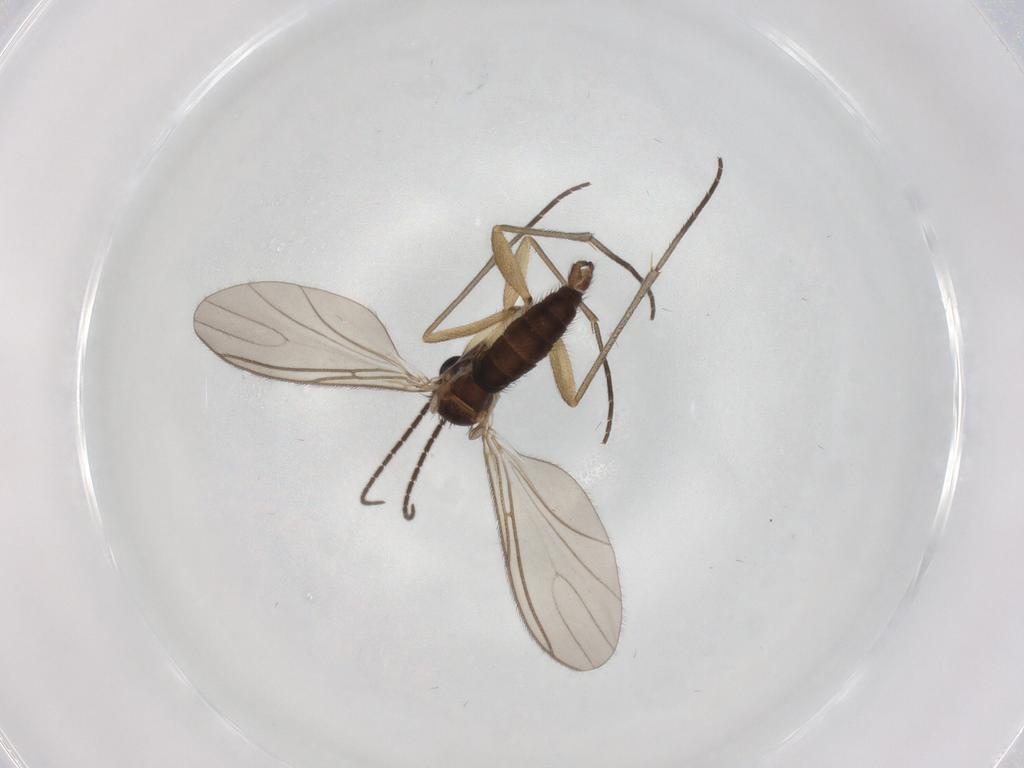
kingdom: Animalia
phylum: Arthropoda
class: Insecta
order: Diptera
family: Sciaridae
